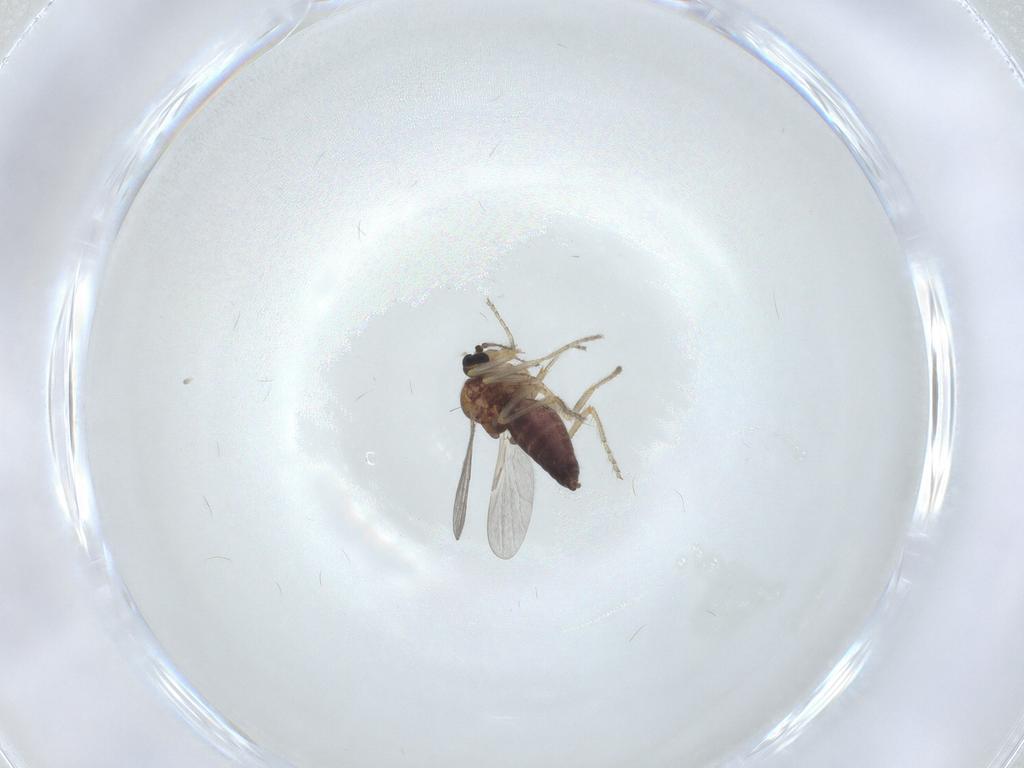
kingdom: Animalia
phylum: Arthropoda
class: Insecta
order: Diptera
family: Ceratopogonidae
